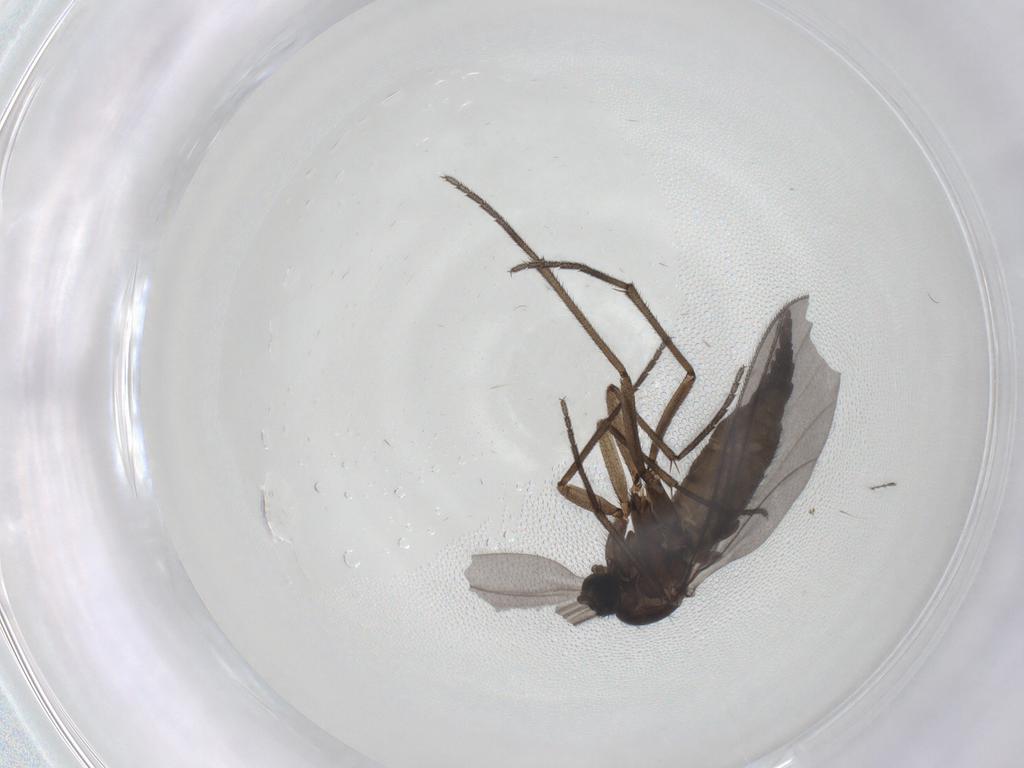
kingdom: Animalia
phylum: Arthropoda
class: Insecta
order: Diptera
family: Sciaridae
